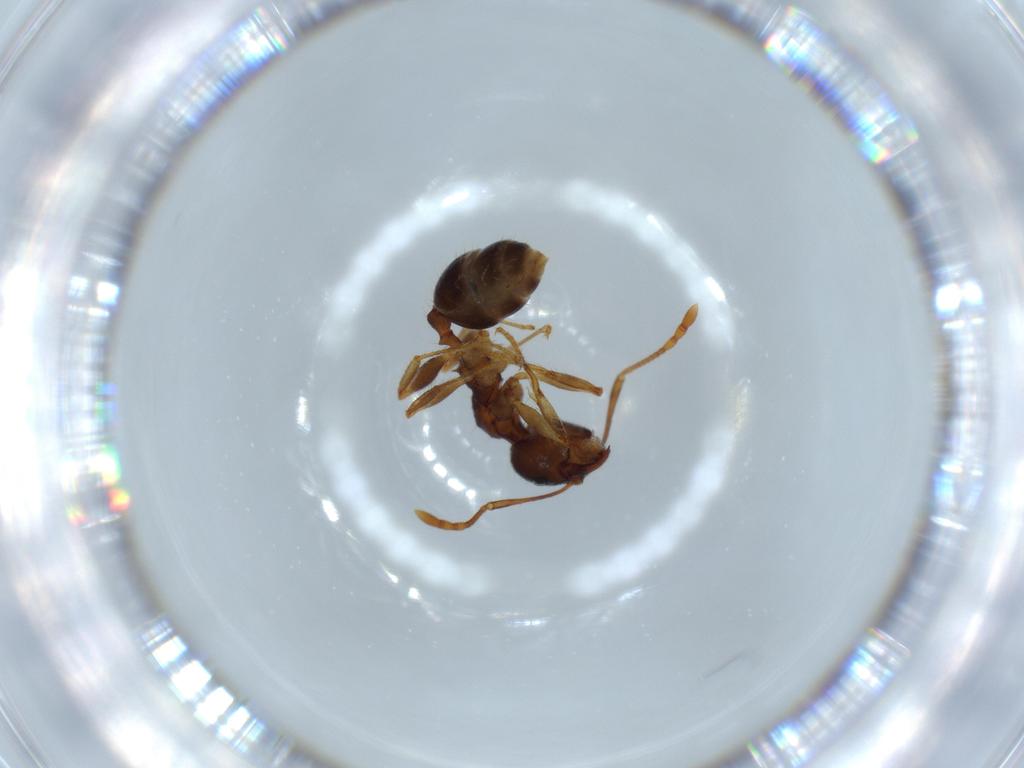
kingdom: Animalia
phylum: Arthropoda
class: Insecta
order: Hymenoptera
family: Formicidae
